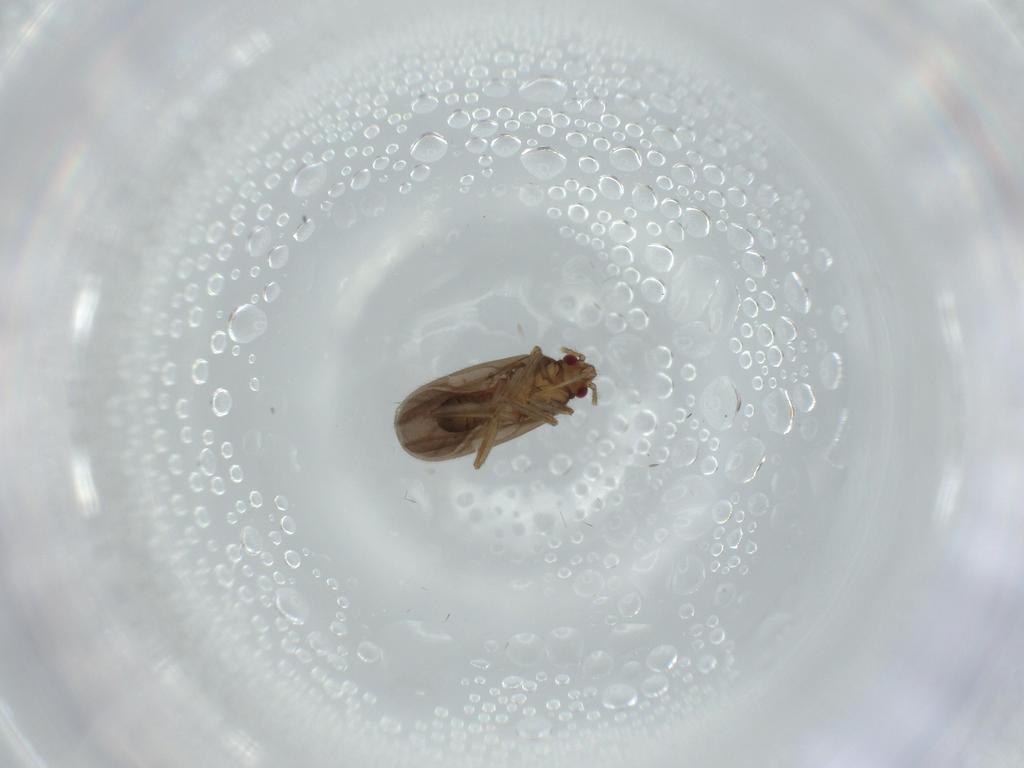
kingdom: Animalia
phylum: Arthropoda
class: Insecta
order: Hemiptera
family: Ceratocombidae
